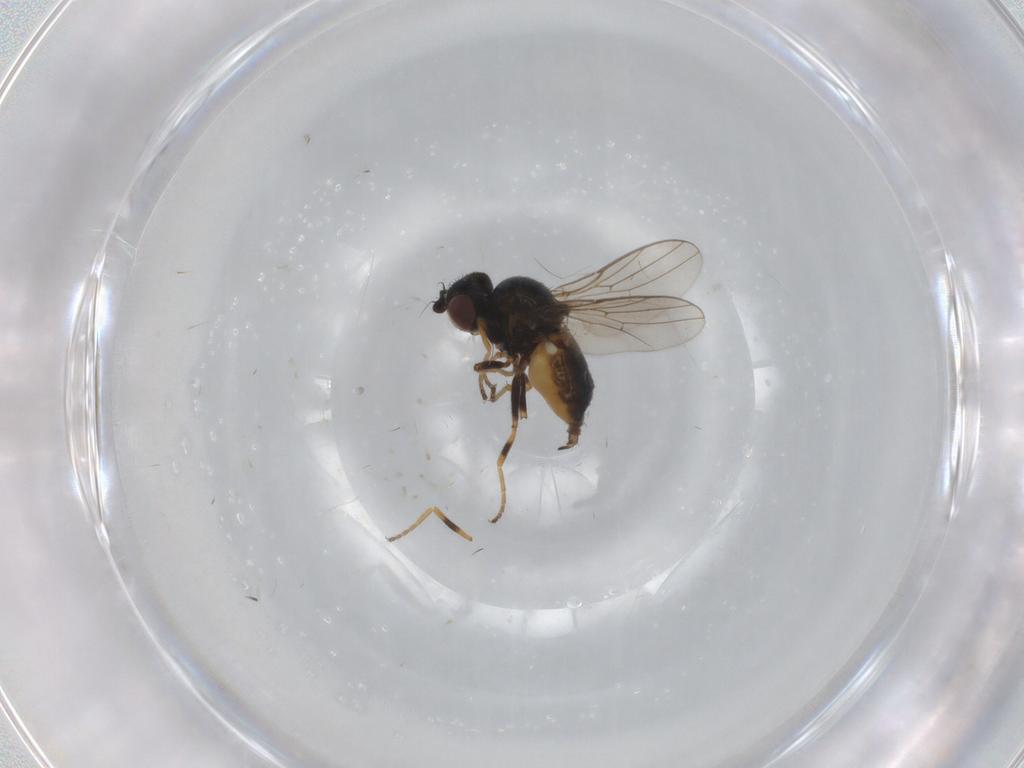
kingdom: Animalia
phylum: Arthropoda
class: Insecta
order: Diptera
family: Chloropidae
